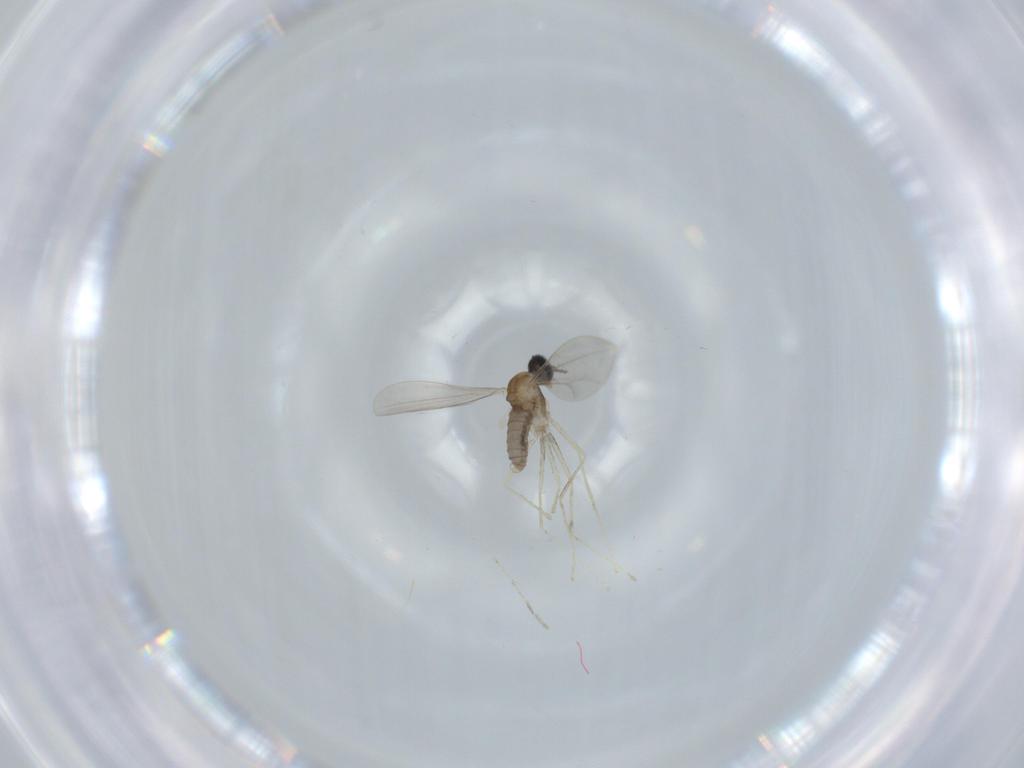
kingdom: Animalia
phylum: Arthropoda
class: Insecta
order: Diptera
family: Cecidomyiidae
